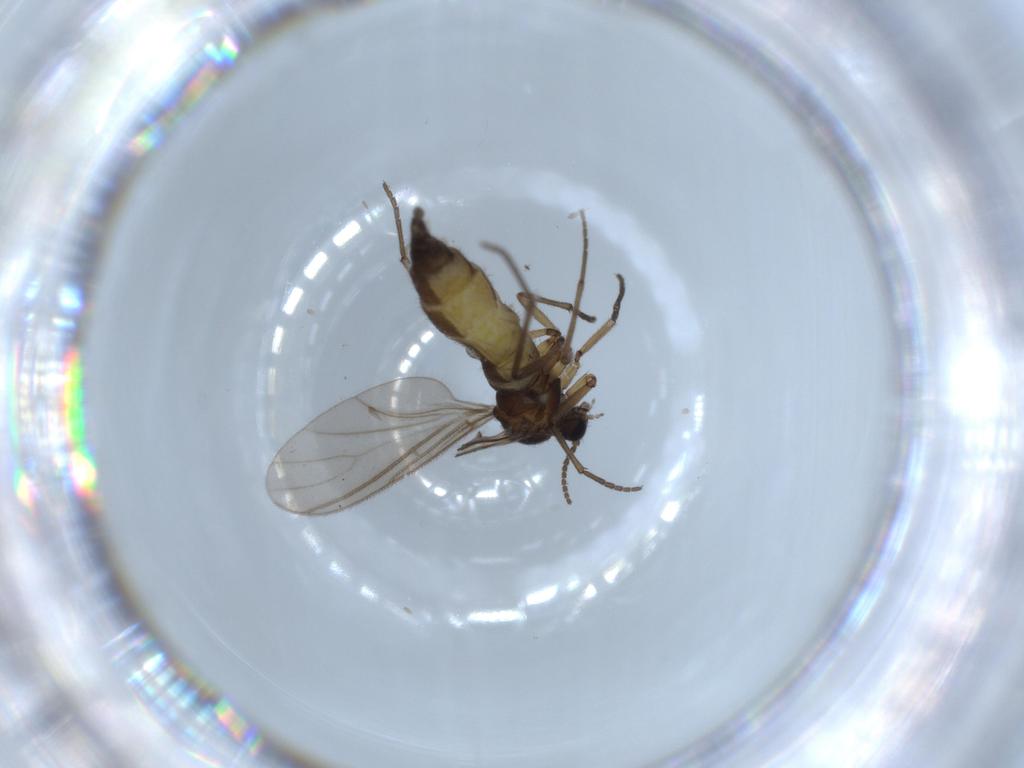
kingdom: Animalia
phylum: Arthropoda
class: Insecta
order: Diptera
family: Sciaridae
